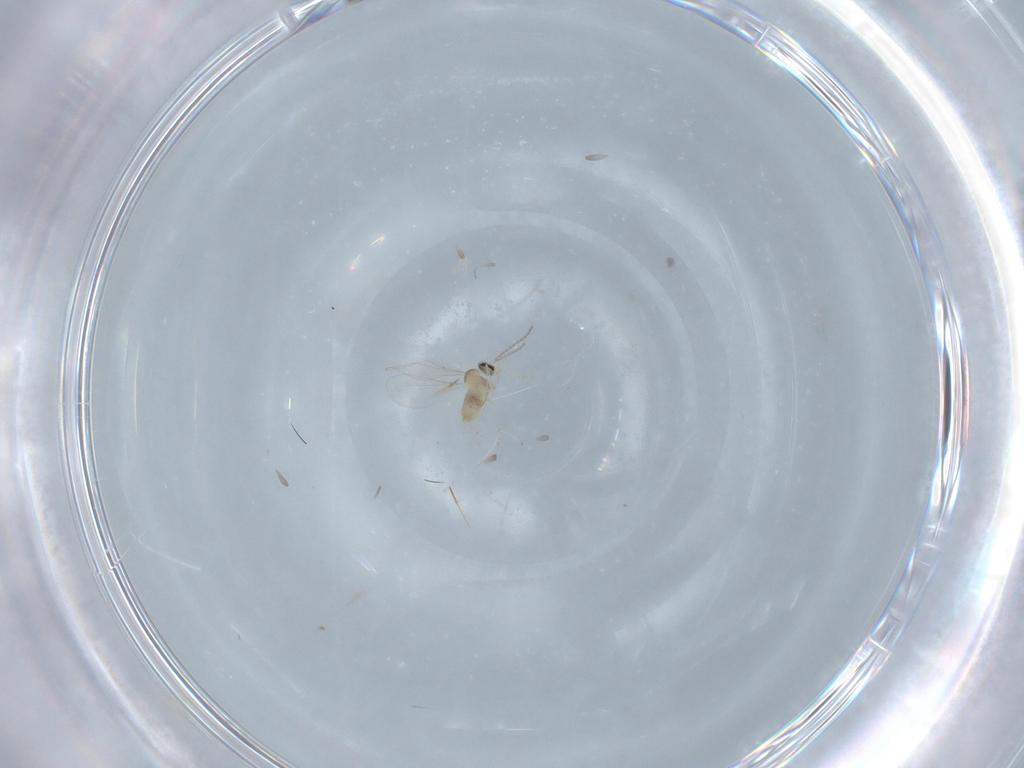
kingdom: Animalia
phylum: Arthropoda
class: Insecta
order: Diptera
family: Cecidomyiidae
